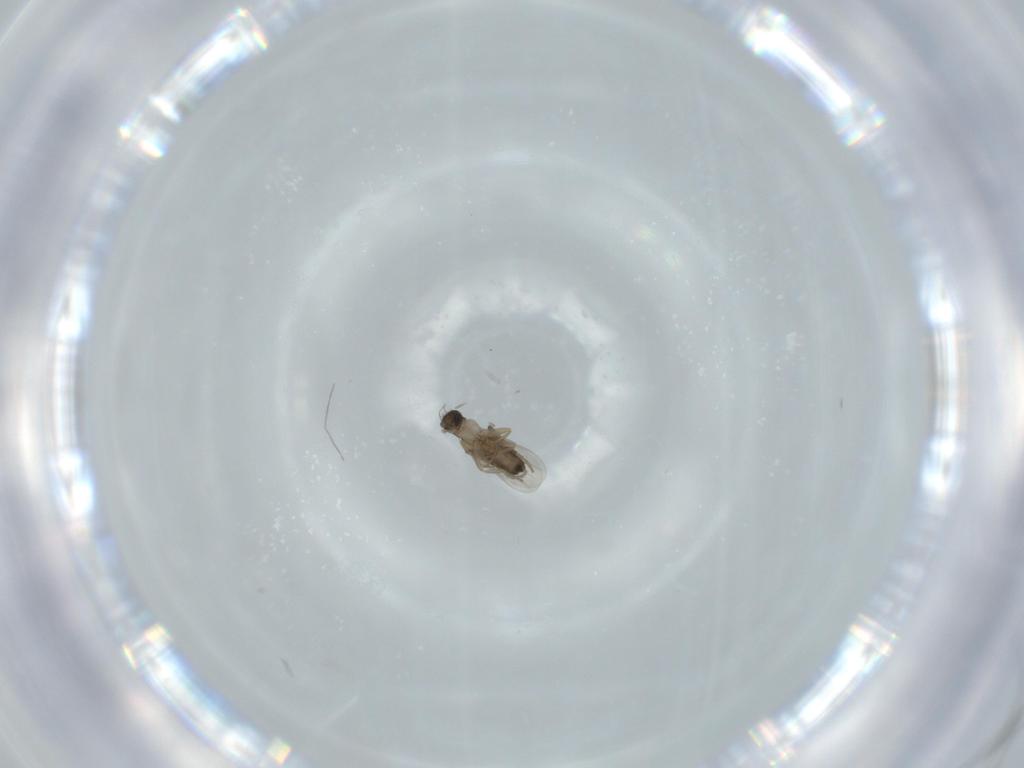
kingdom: Animalia
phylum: Arthropoda
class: Insecta
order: Diptera
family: Phoridae
